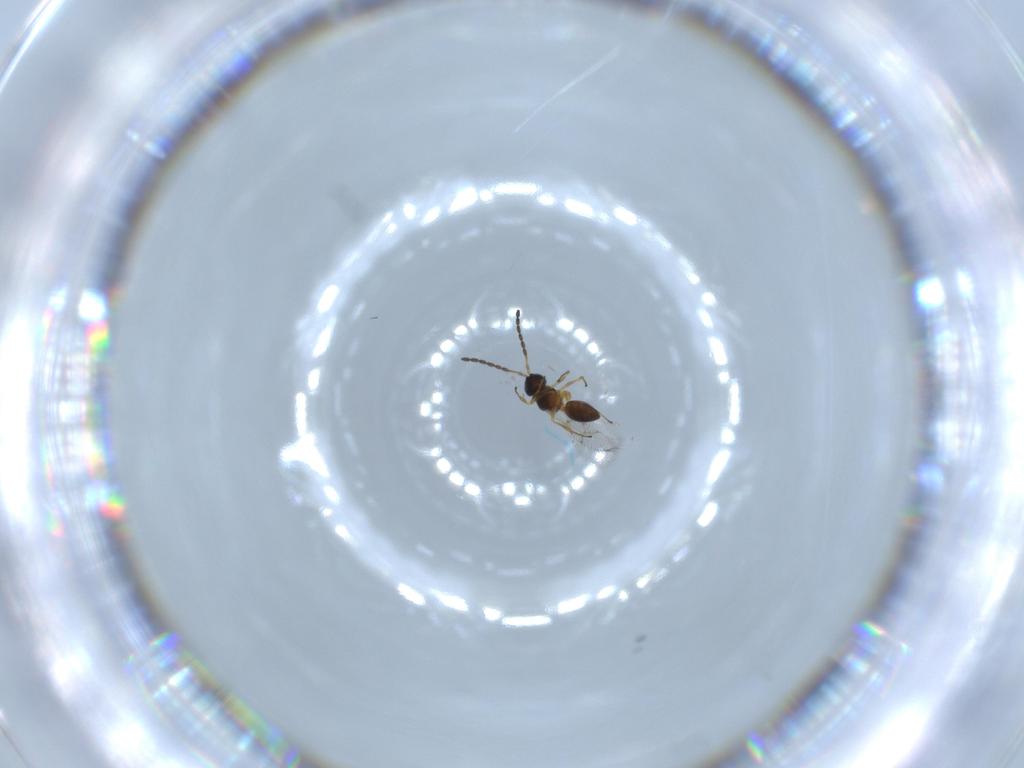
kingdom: Animalia
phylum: Arthropoda
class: Insecta
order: Hymenoptera
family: Figitidae
